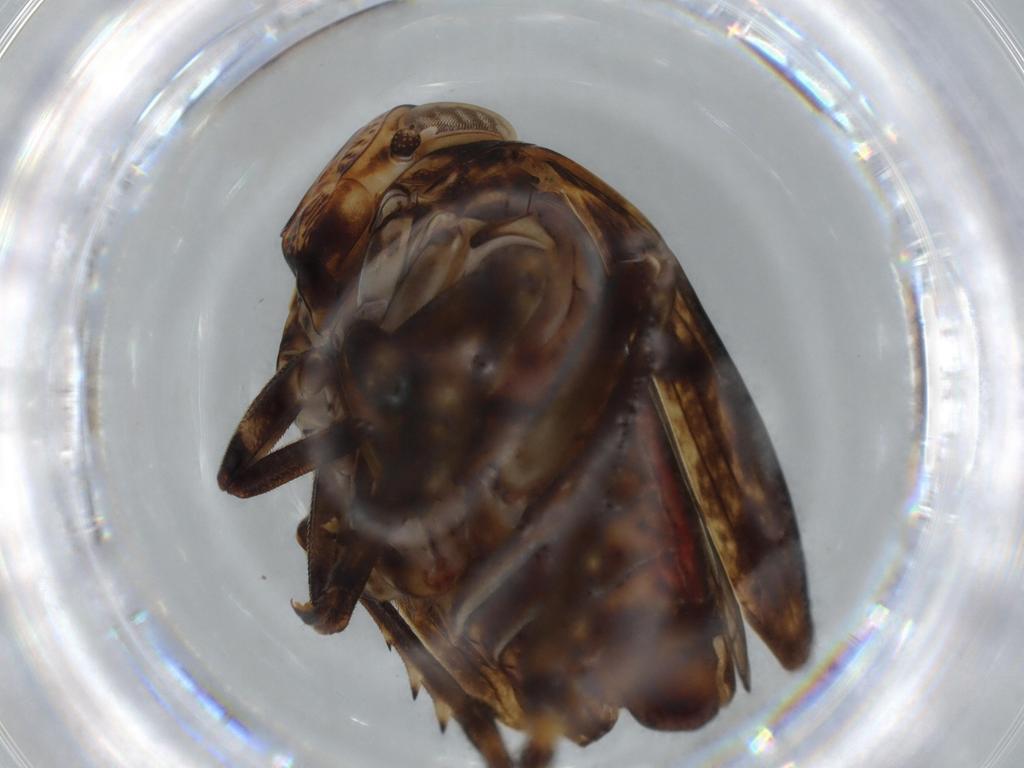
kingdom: Animalia
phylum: Arthropoda
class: Insecta
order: Hemiptera
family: Issidae
